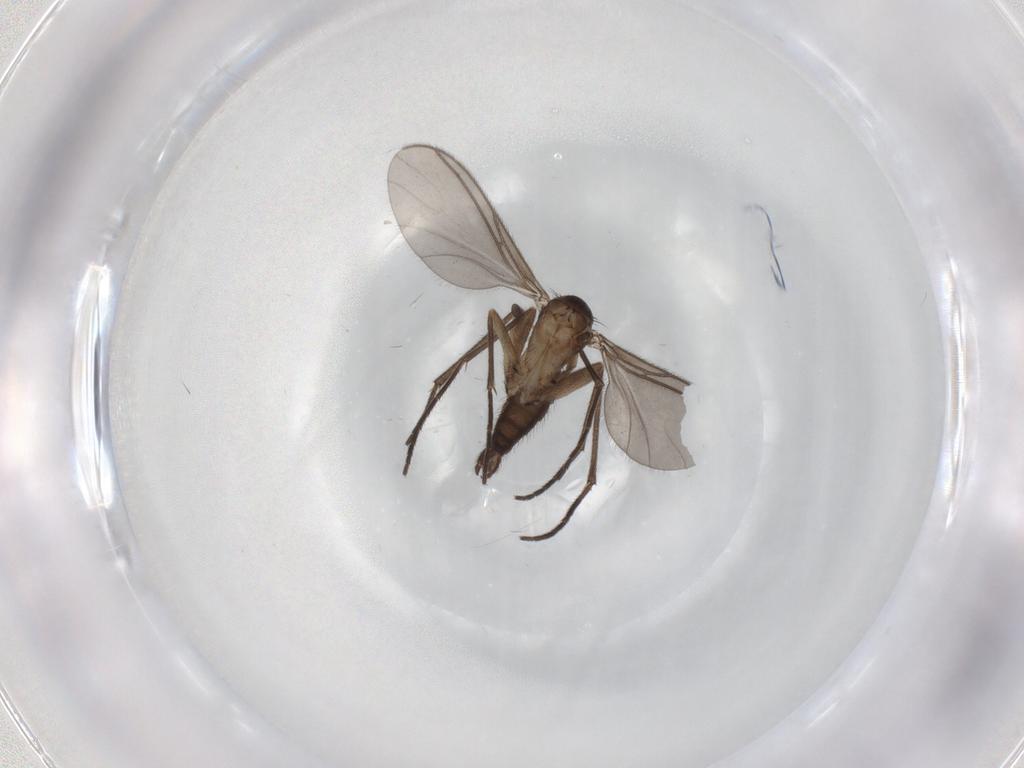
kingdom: Animalia
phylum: Arthropoda
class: Insecta
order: Diptera
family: Sciaridae
